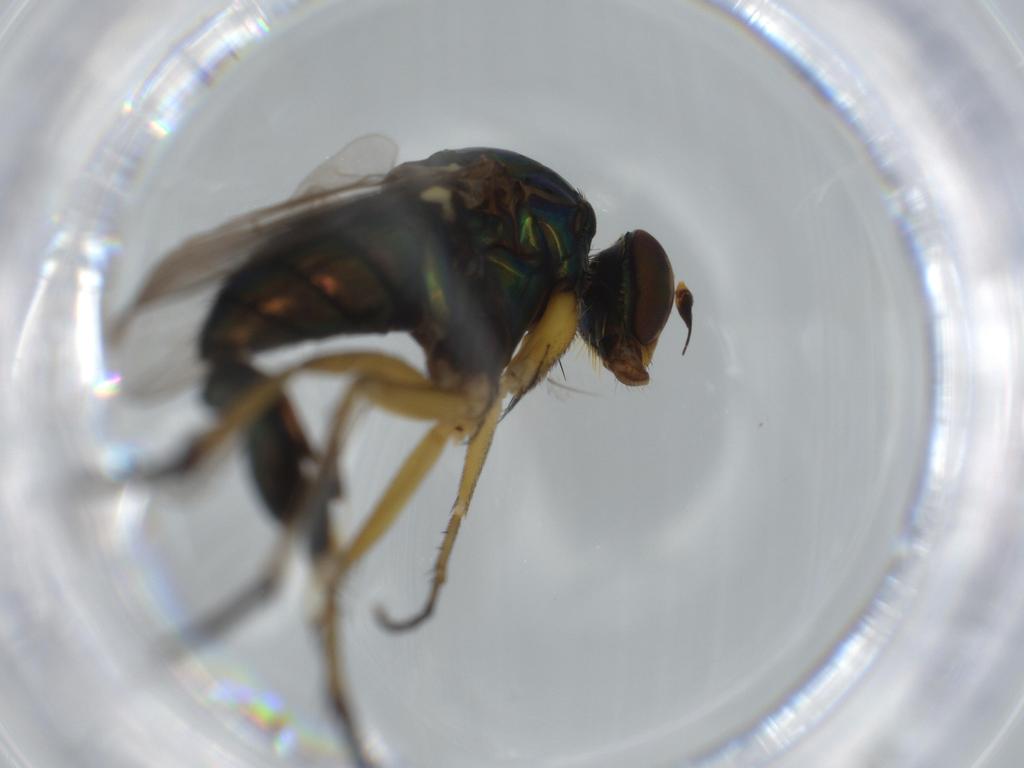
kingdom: Animalia
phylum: Arthropoda
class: Insecta
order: Diptera
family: Dolichopodidae
